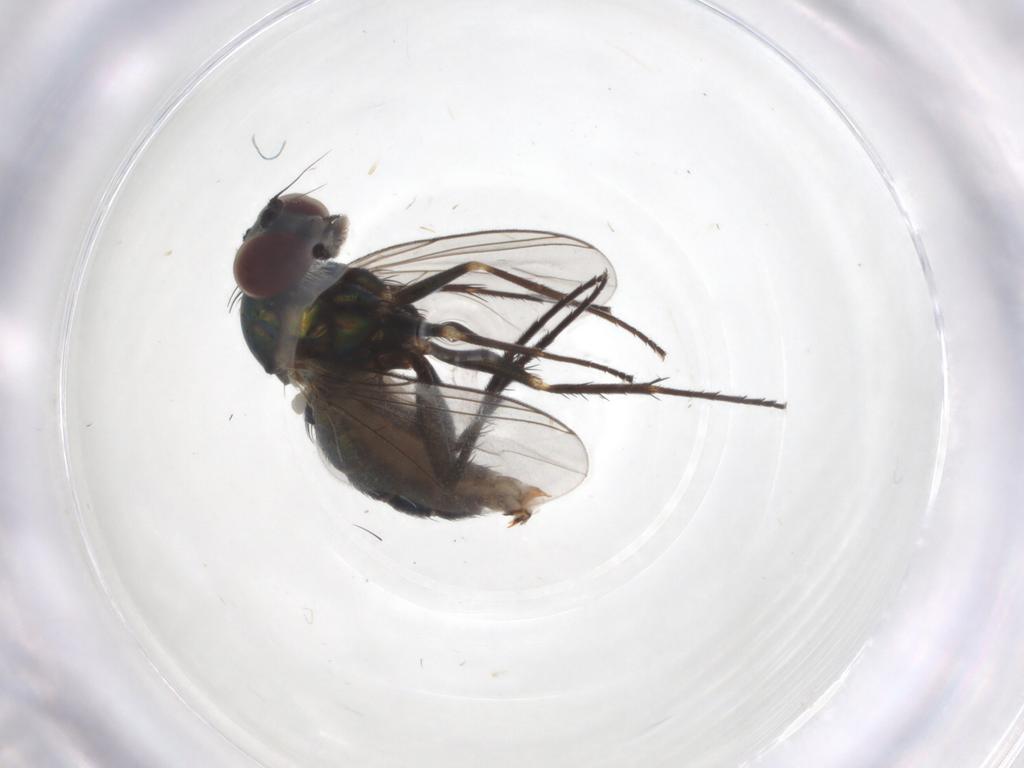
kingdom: Animalia
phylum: Arthropoda
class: Insecta
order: Diptera
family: Dolichopodidae
